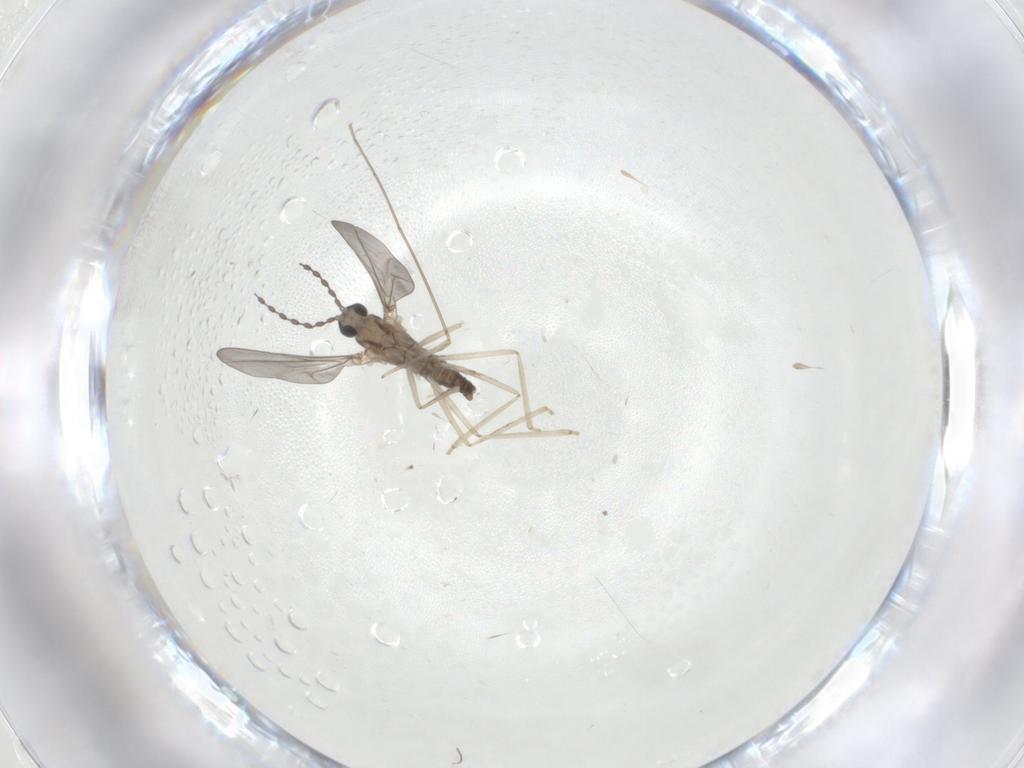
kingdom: Animalia
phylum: Arthropoda
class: Insecta
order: Diptera
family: Cecidomyiidae
